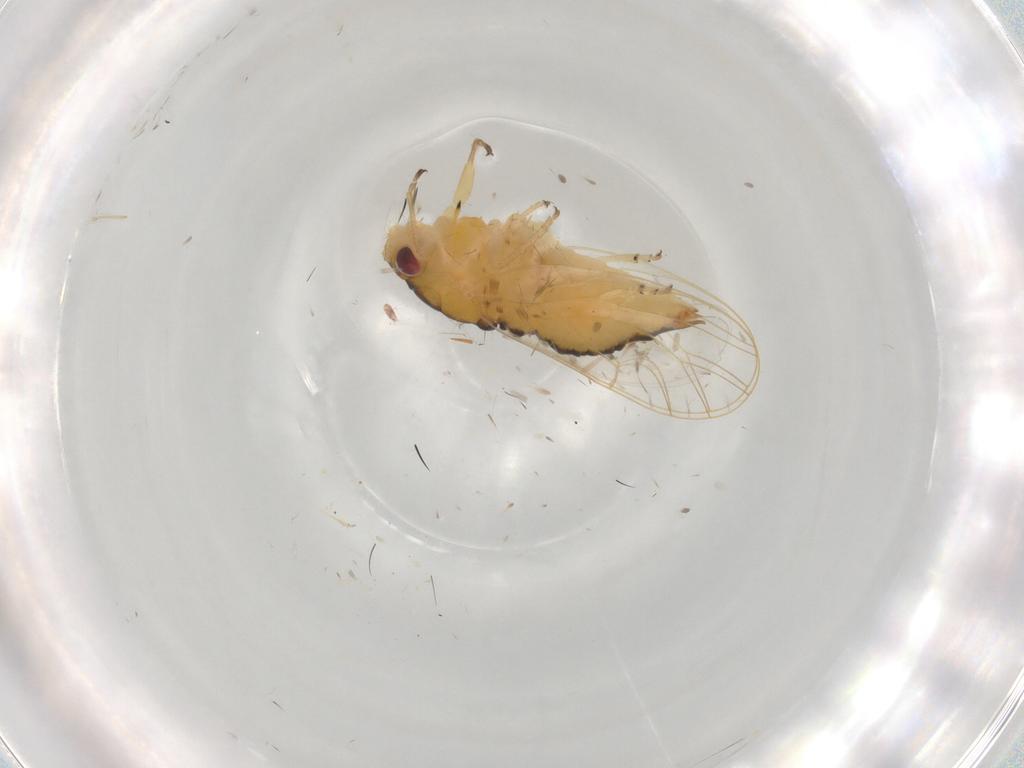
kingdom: Animalia
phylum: Arthropoda
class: Insecta
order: Hemiptera
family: Psyllidae
